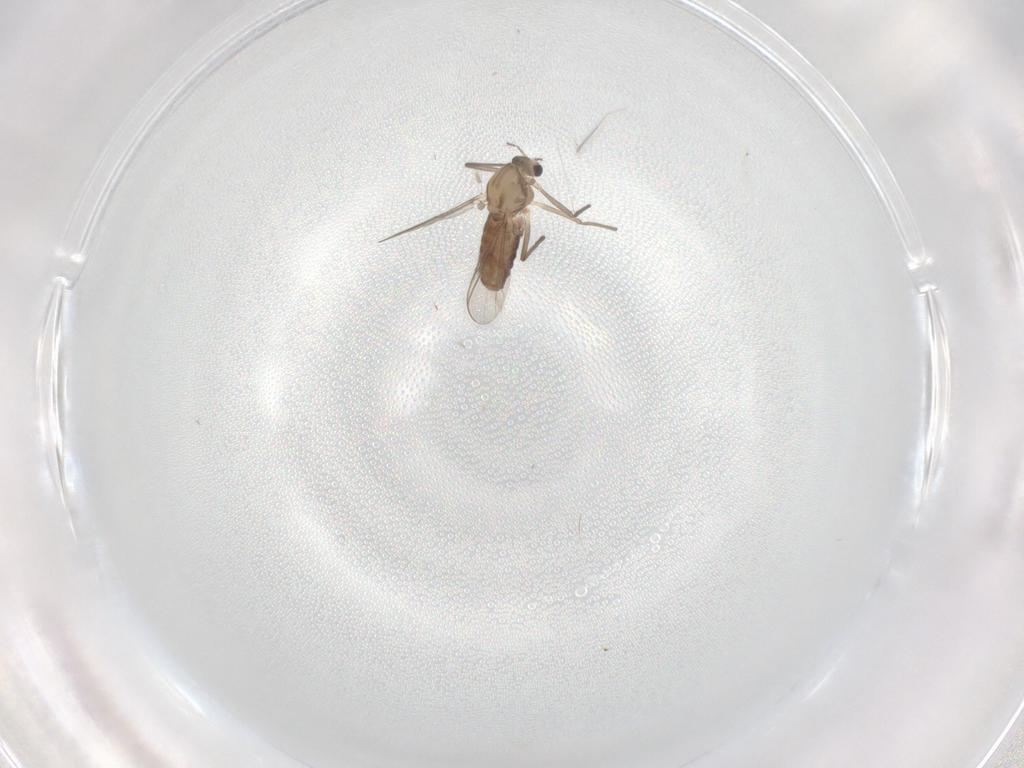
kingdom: Animalia
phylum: Arthropoda
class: Insecta
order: Diptera
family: Chironomidae
